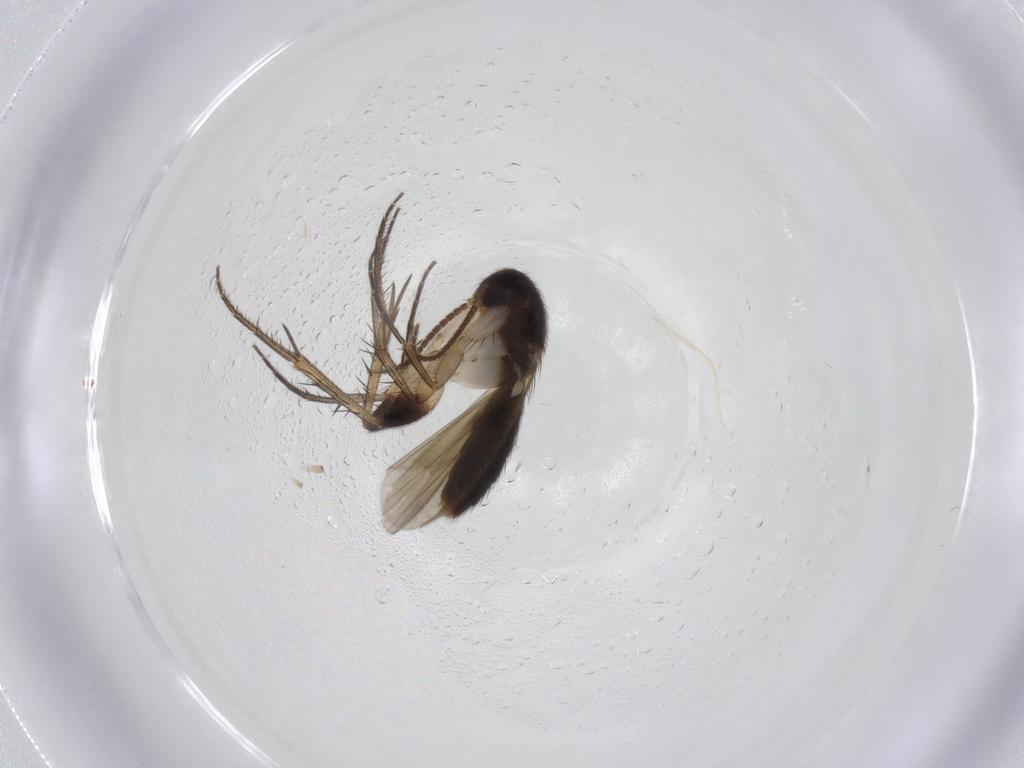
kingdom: Animalia
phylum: Arthropoda
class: Insecta
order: Diptera
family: Ceratopogonidae
